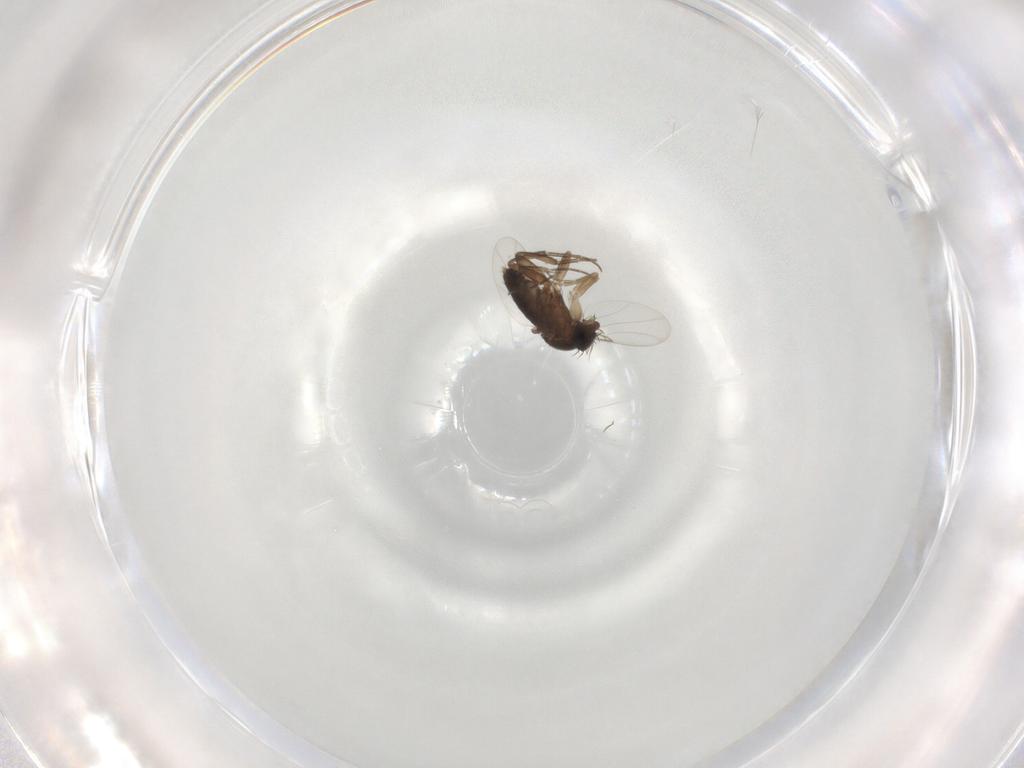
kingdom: Animalia
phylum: Arthropoda
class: Insecta
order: Diptera
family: Phoridae
